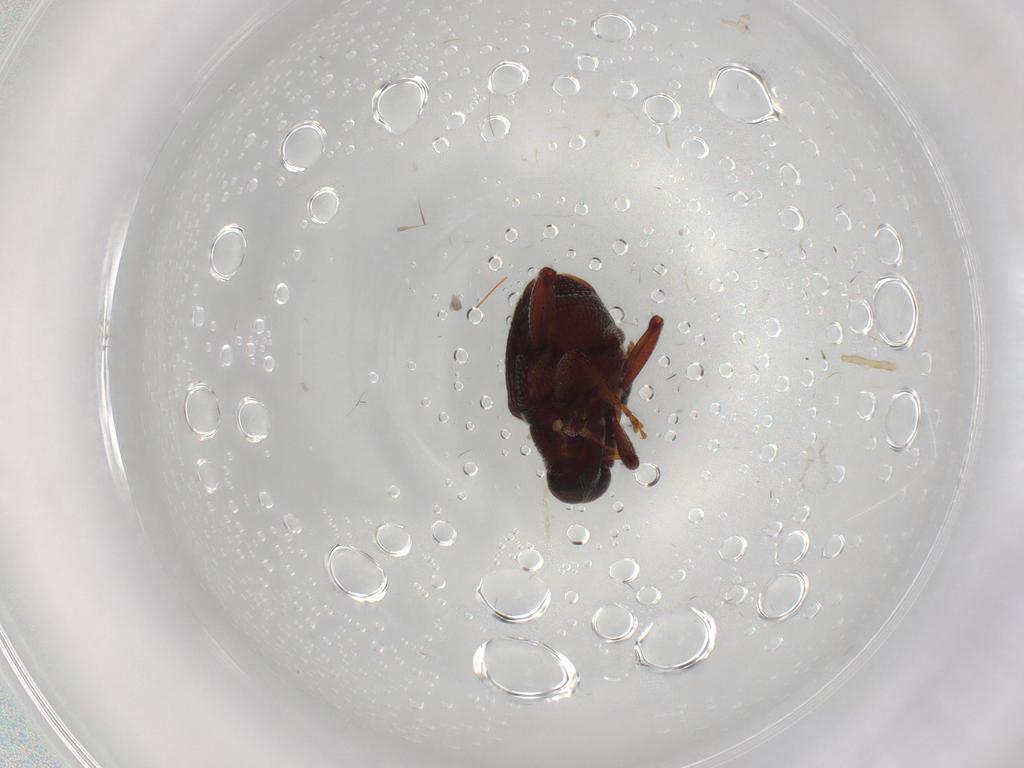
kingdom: Animalia
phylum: Arthropoda
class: Insecta
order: Coleoptera
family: Curculionidae
